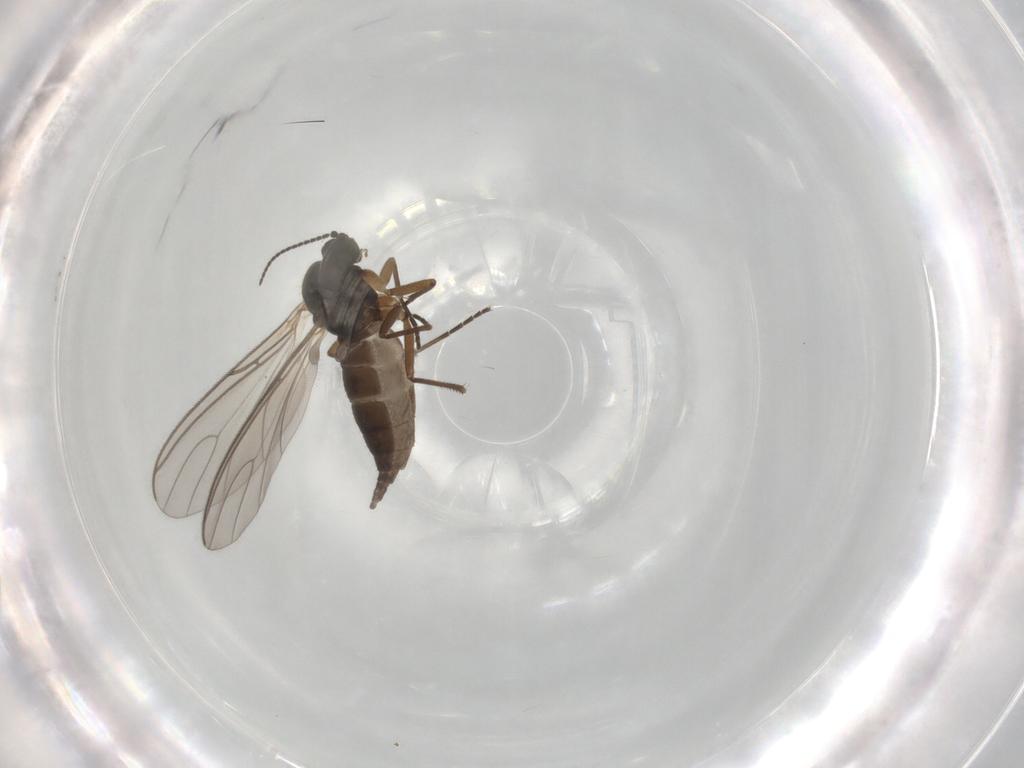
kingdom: Animalia
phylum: Arthropoda
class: Insecta
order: Diptera
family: Sciaridae
